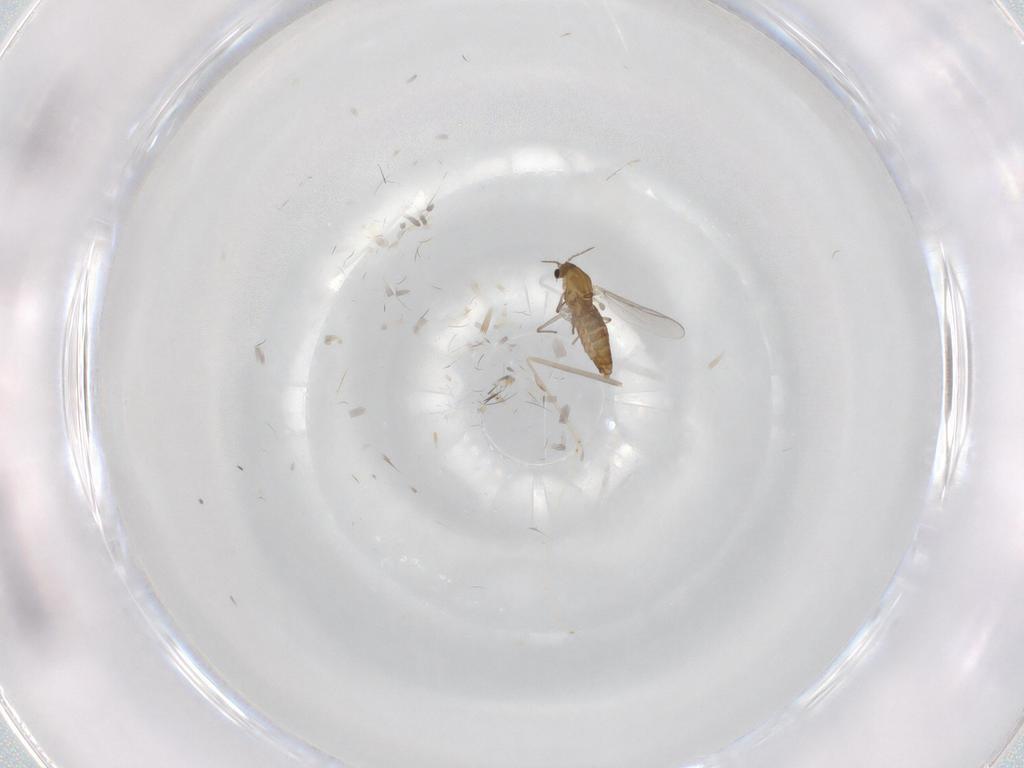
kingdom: Animalia
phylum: Arthropoda
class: Insecta
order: Diptera
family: Chironomidae
